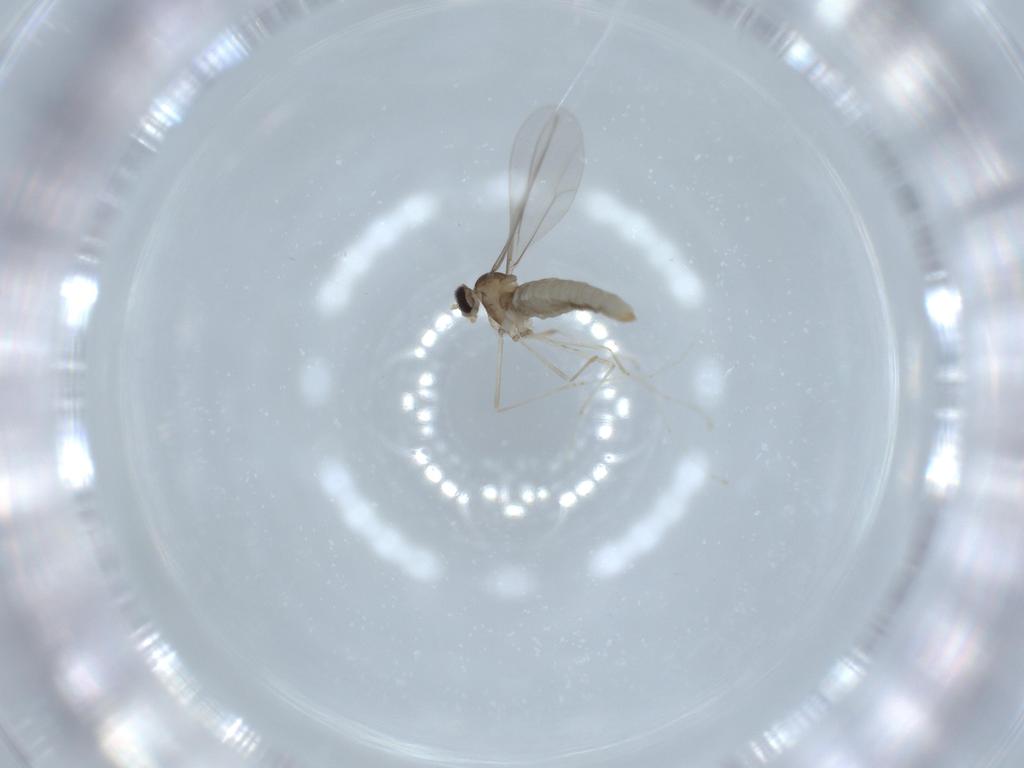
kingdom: Animalia
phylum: Arthropoda
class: Insecta
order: Diptera
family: Cecidomyiidae
